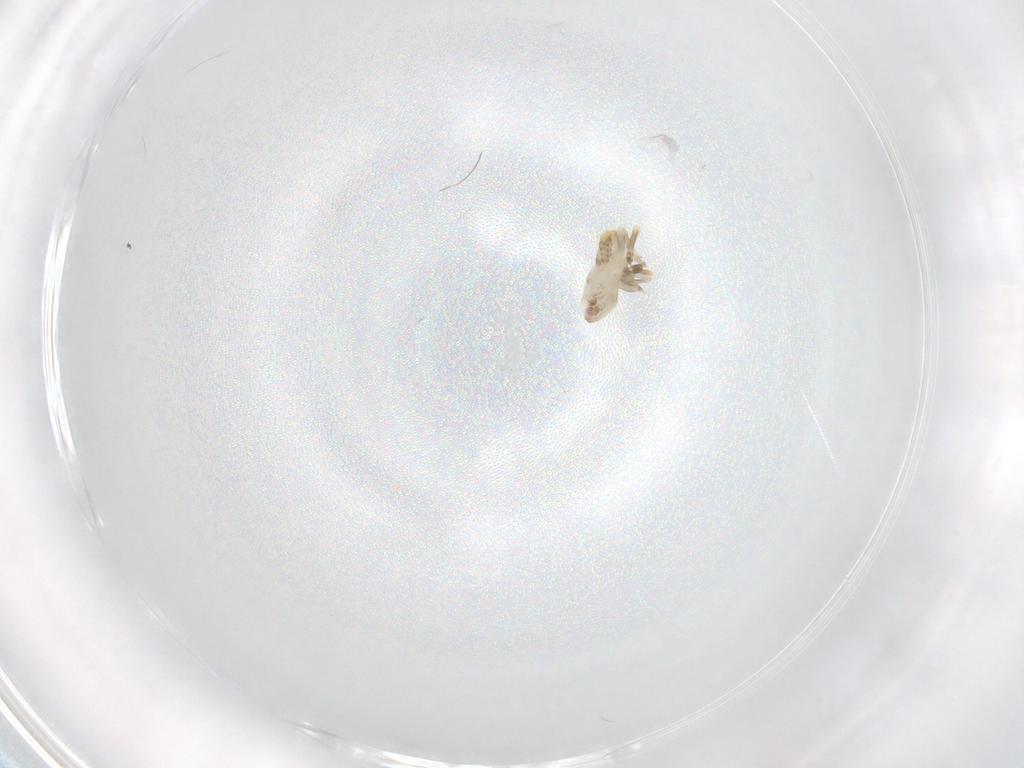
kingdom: Animalia
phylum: Arthropoda
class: Insecta
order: Hemiptera
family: Flatidae
